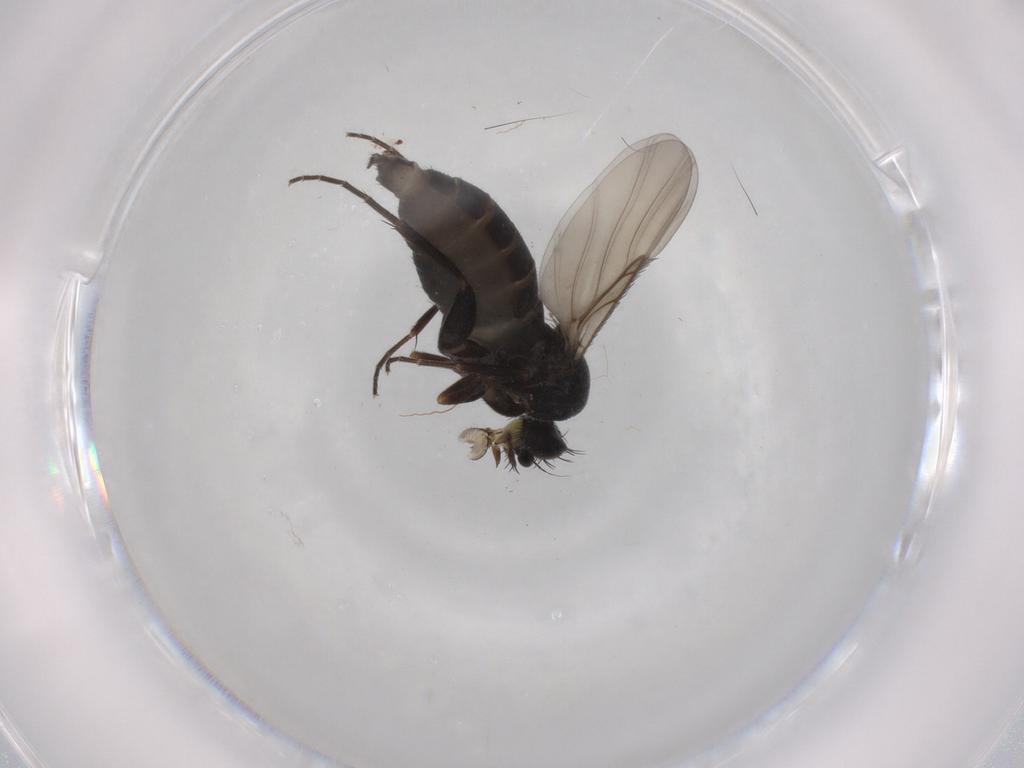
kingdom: Animalia
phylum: Arthropoda
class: Insecta
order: Diptera
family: Phoridae
